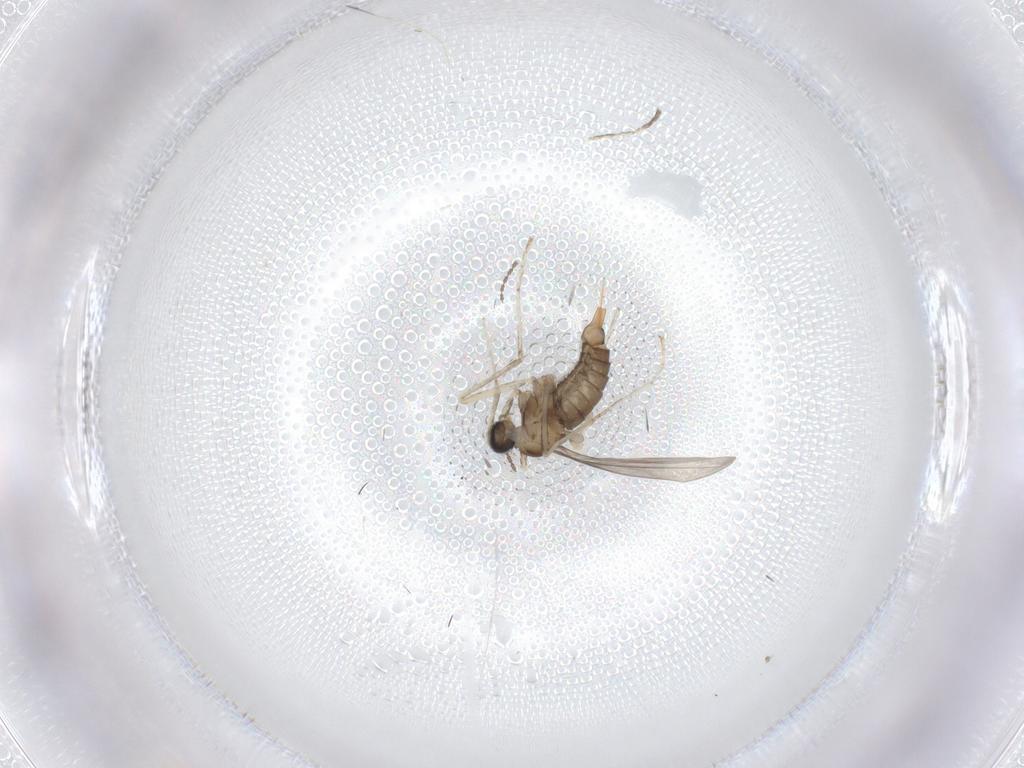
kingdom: Animalia
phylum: Arthropoda
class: Insecta
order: Diptera
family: Cecidomyiidae
